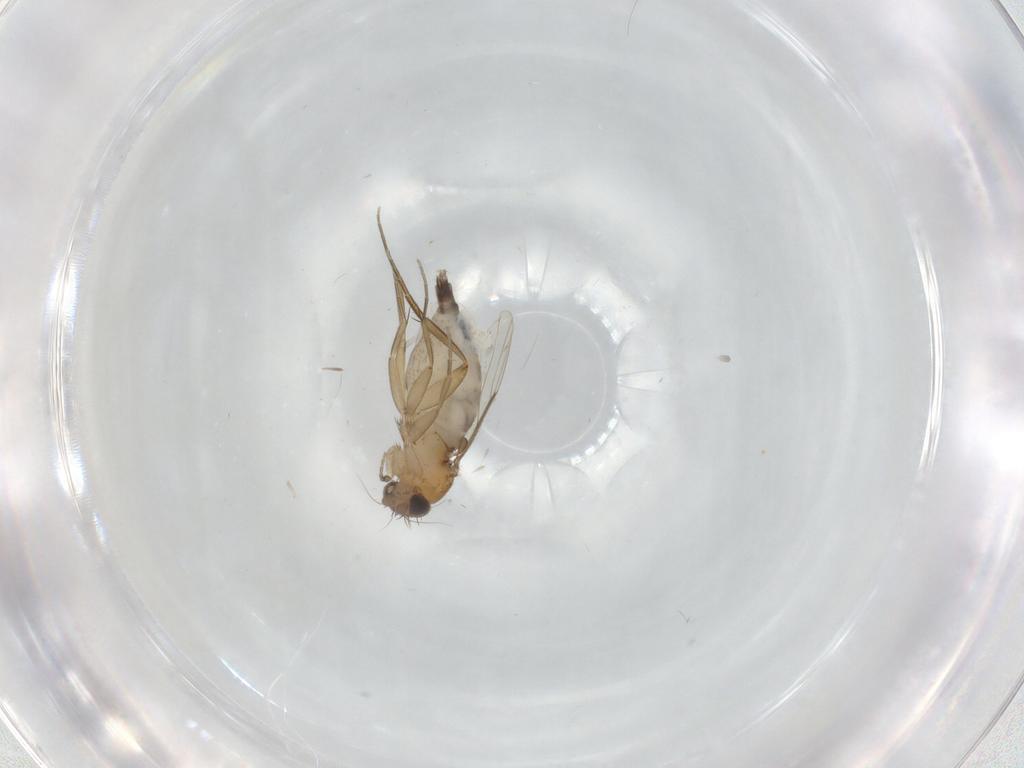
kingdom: Animalia
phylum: Arthropoda
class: Insecta
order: Diptera
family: Phoridae
